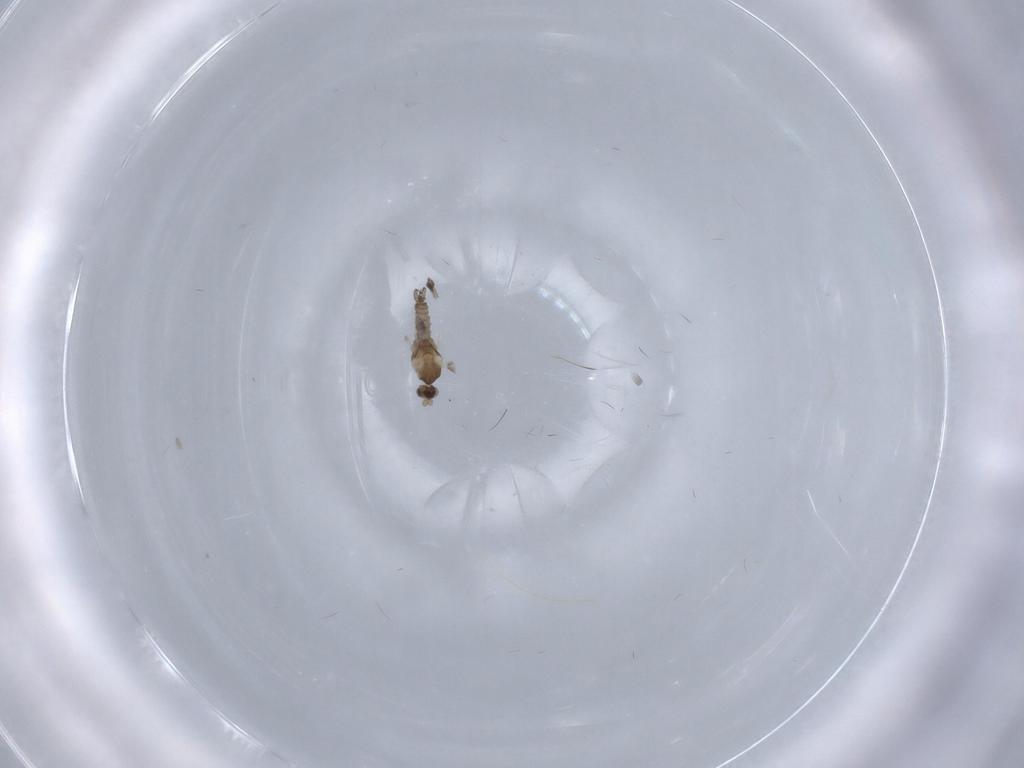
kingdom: Animalia
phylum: Arthropoda
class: Insecta
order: Diptera
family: Cecidomyiidae
